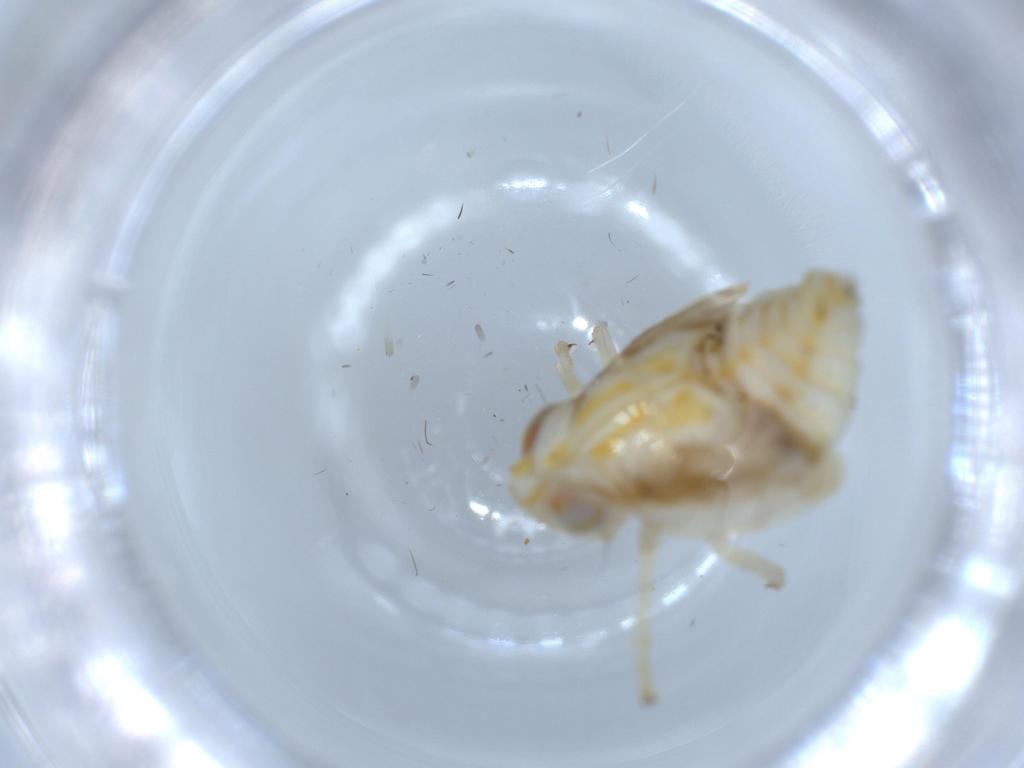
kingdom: Animalia
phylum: Arthropoda
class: Insecta
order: Hemiptera
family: Nogodinidae
